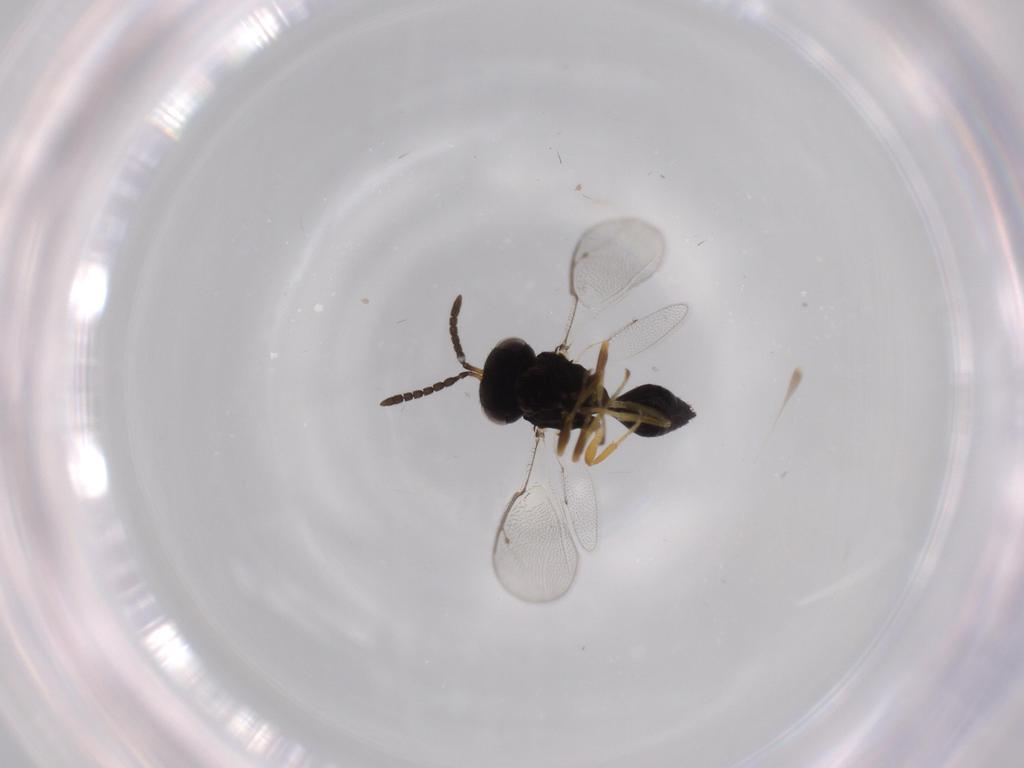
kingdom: Animalia
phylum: Arthropoda
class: Insecta
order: Hymenoptera
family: Pteromalidae
